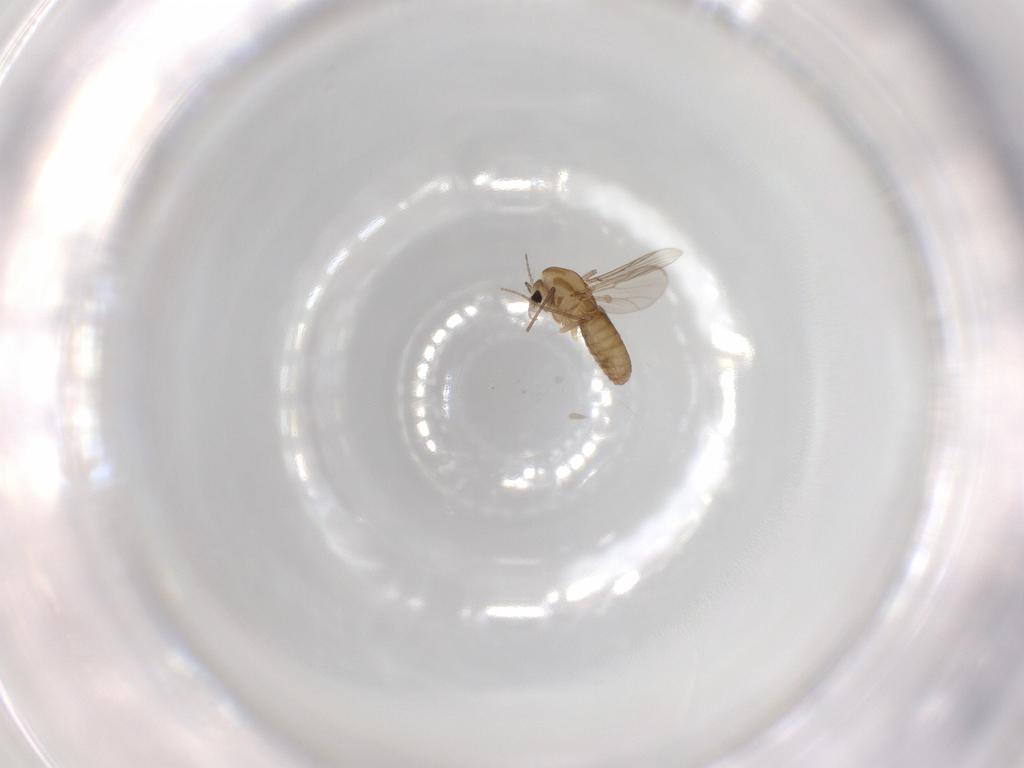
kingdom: Animalia
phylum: Arthropoda
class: Insecta
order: Diptera
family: Chironomidae
